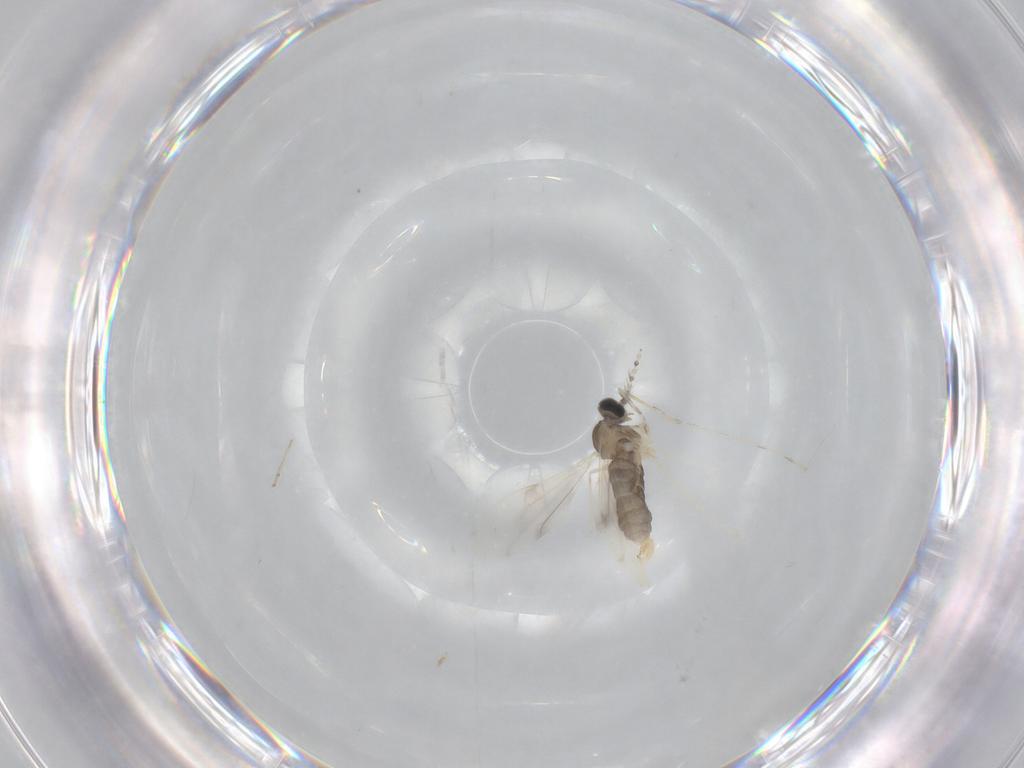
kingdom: Animalia
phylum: Arthropoda
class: Insecta
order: Diptera
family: Cecidomyiidae
